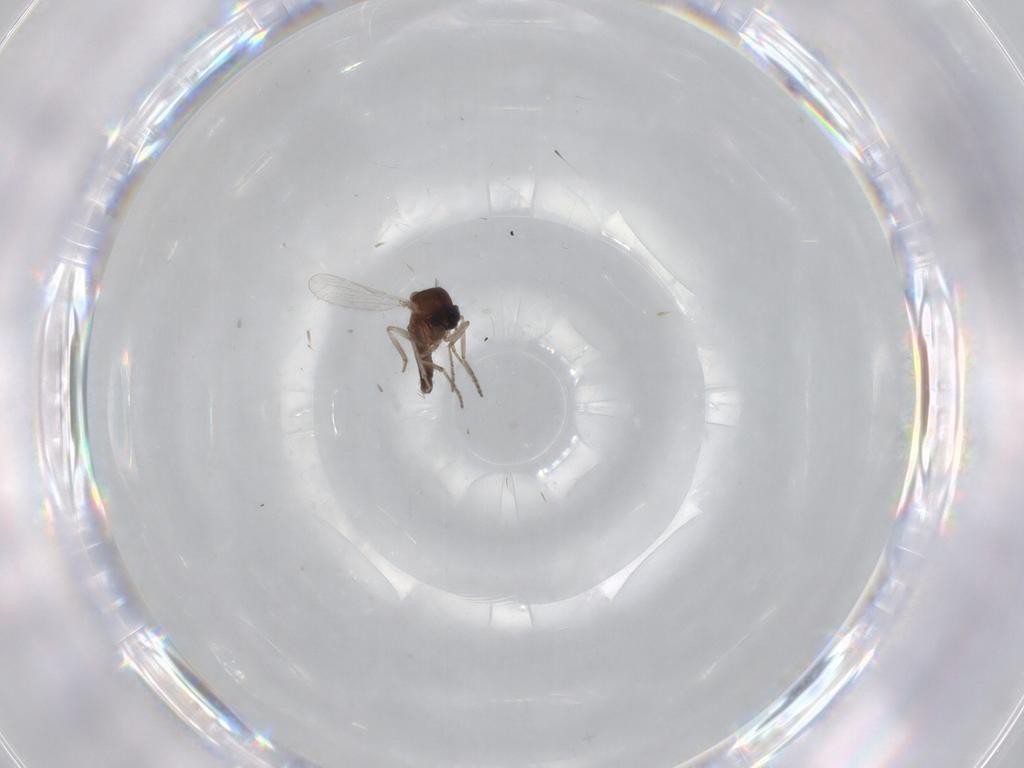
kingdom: Animalia
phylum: Arthropoda
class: Insecta
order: Diptera
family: Ceratopogonidae
